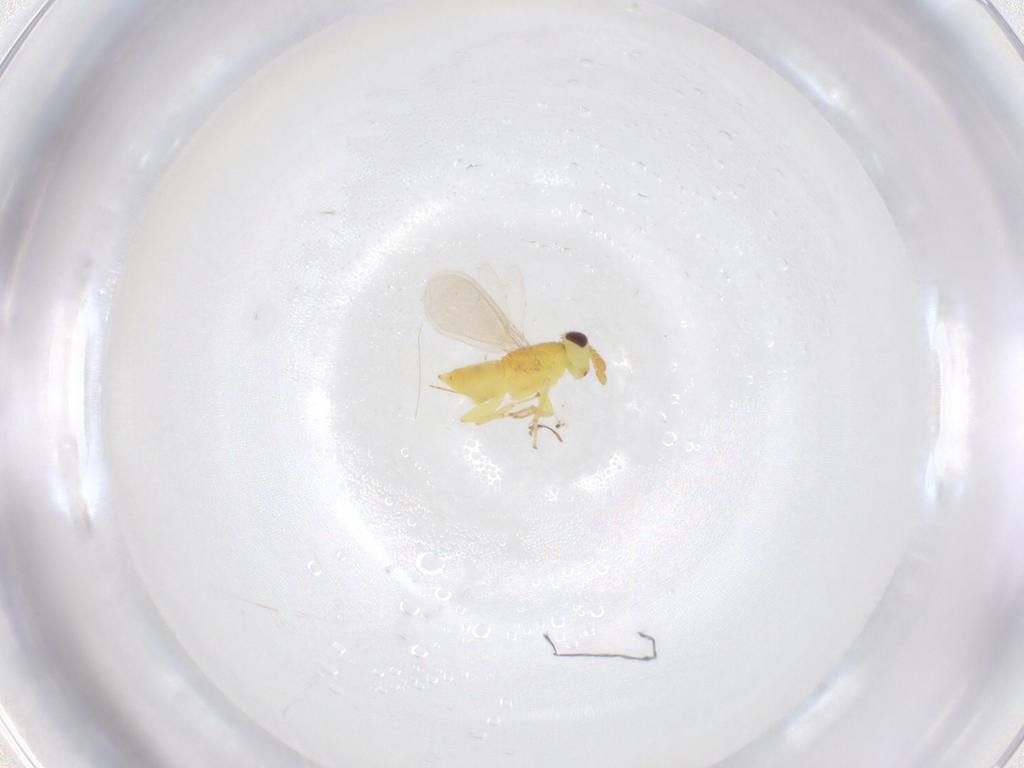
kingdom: Animalia
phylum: Arthropoda
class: Insecta
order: Hymenoptera
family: Aphelinidae
